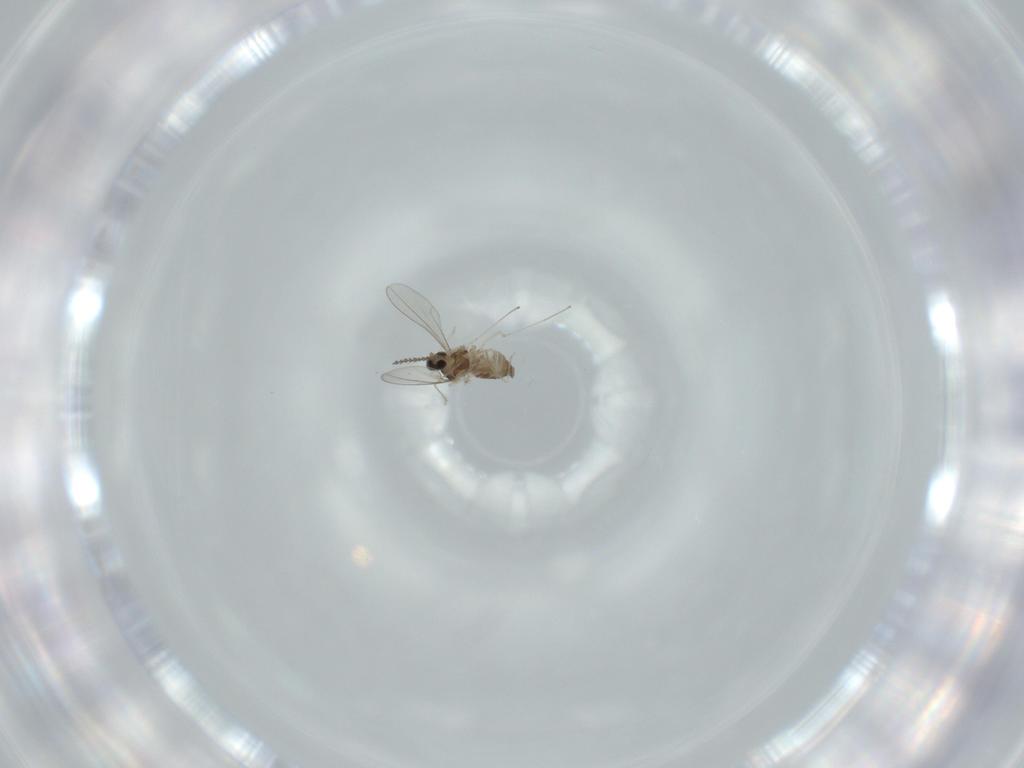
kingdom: Animalia
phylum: Arthropoda
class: Insecta
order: Diptera
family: Cecidomyiidae
